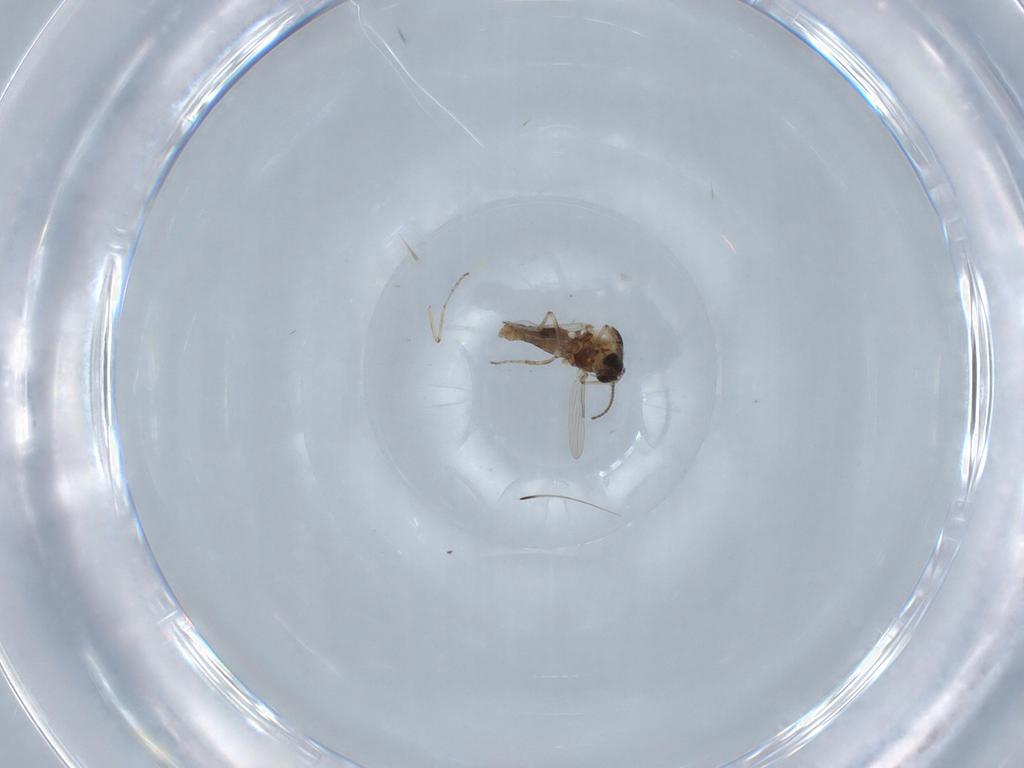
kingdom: Animalia
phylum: Arthropoda
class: Insecta
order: Diptera
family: Ceratopogonidae
